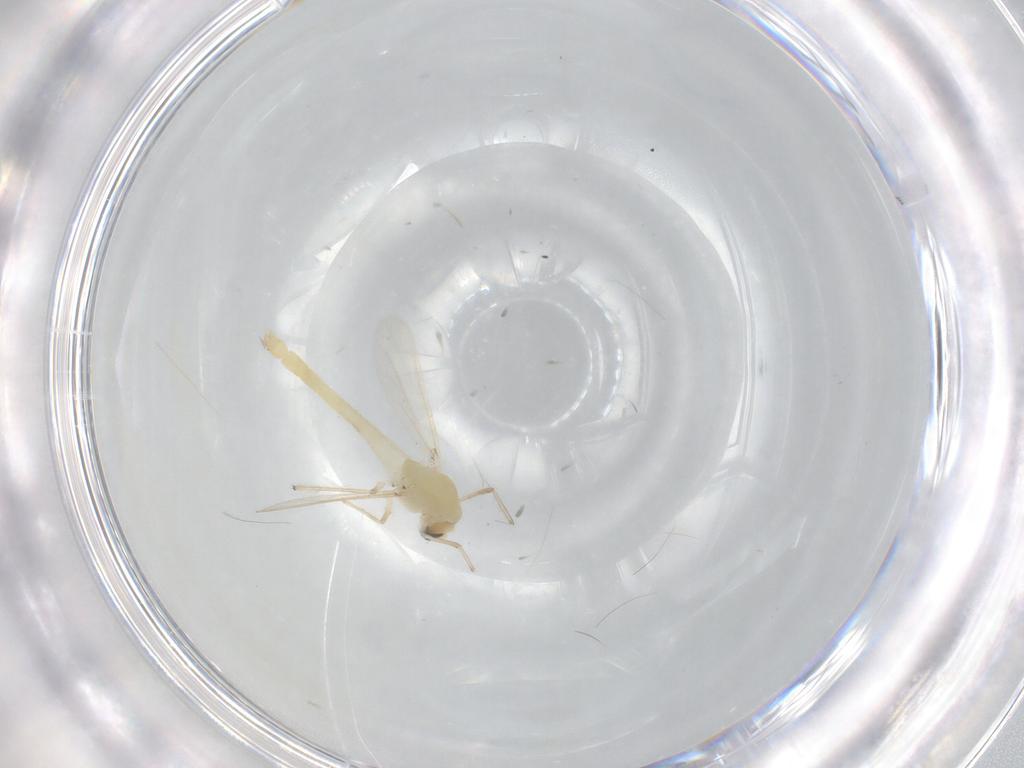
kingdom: Animalia
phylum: Arthropoda
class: Insecta
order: Diptera
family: Chironomidae
